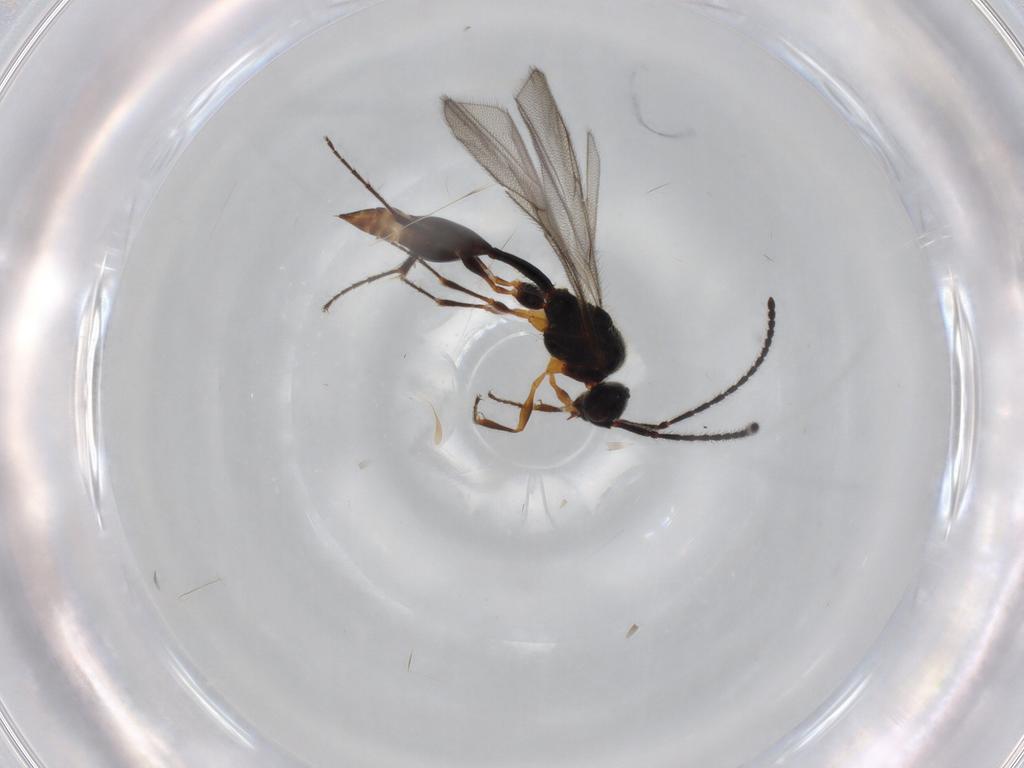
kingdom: Animalia
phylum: Arthropoda
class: Insecta
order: Hymenoptera
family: Diapriidae
